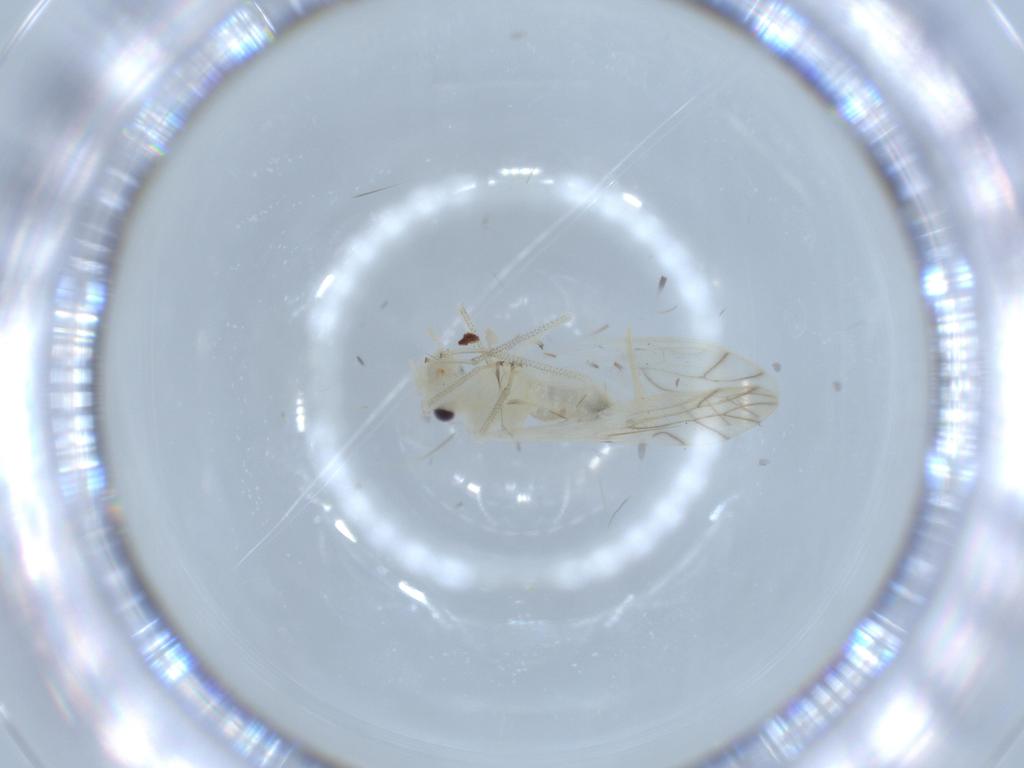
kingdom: Animalia
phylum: Arthropoda
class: Insecta
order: Psocodea
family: Caeciliusidae
